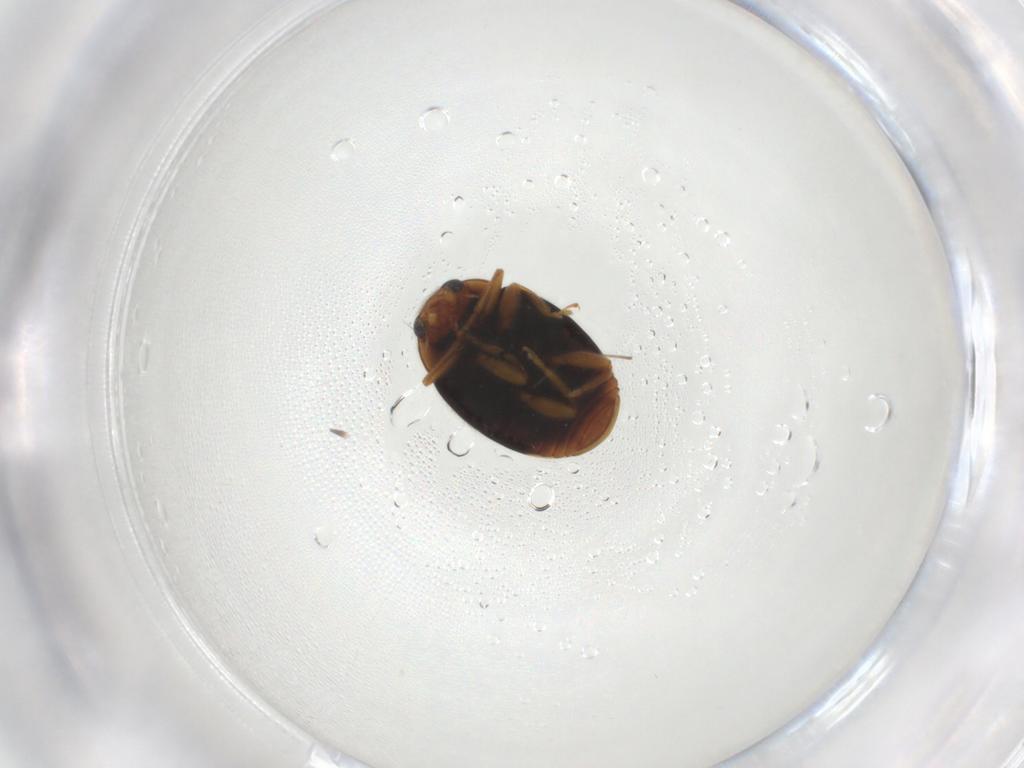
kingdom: Animalia
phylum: Arthropoda
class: Insecta
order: Coleoptera
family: Coccinellidae
